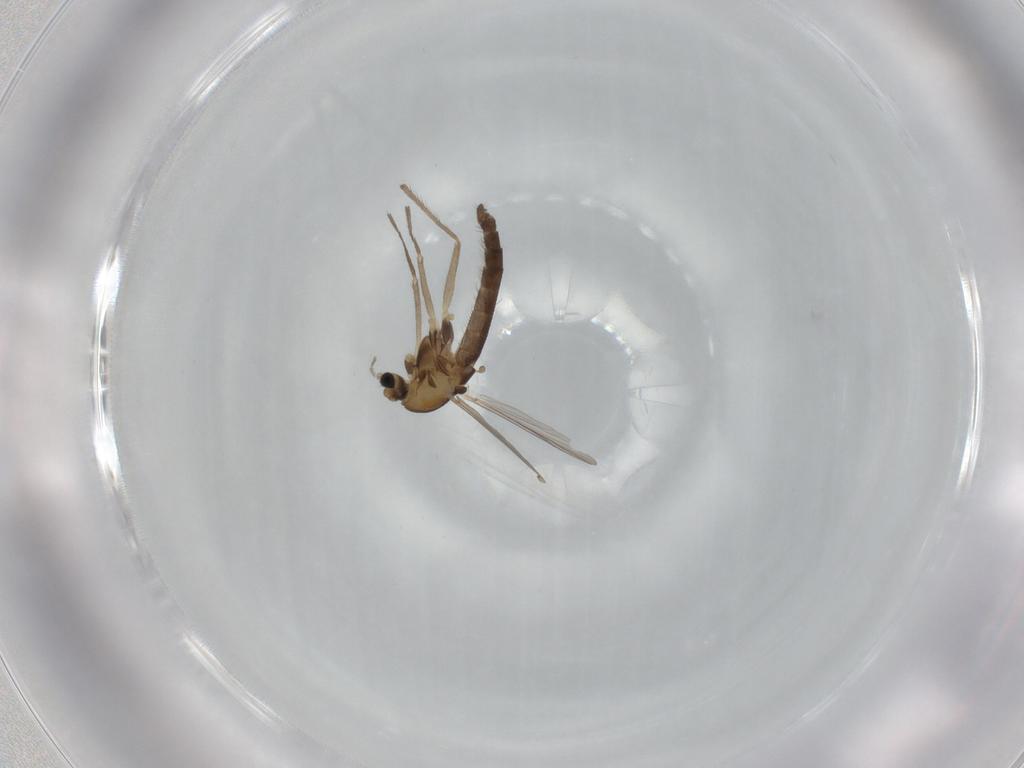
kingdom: Animalia
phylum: Arthropoda
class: Insecta
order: Diptera
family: Chironomidae
